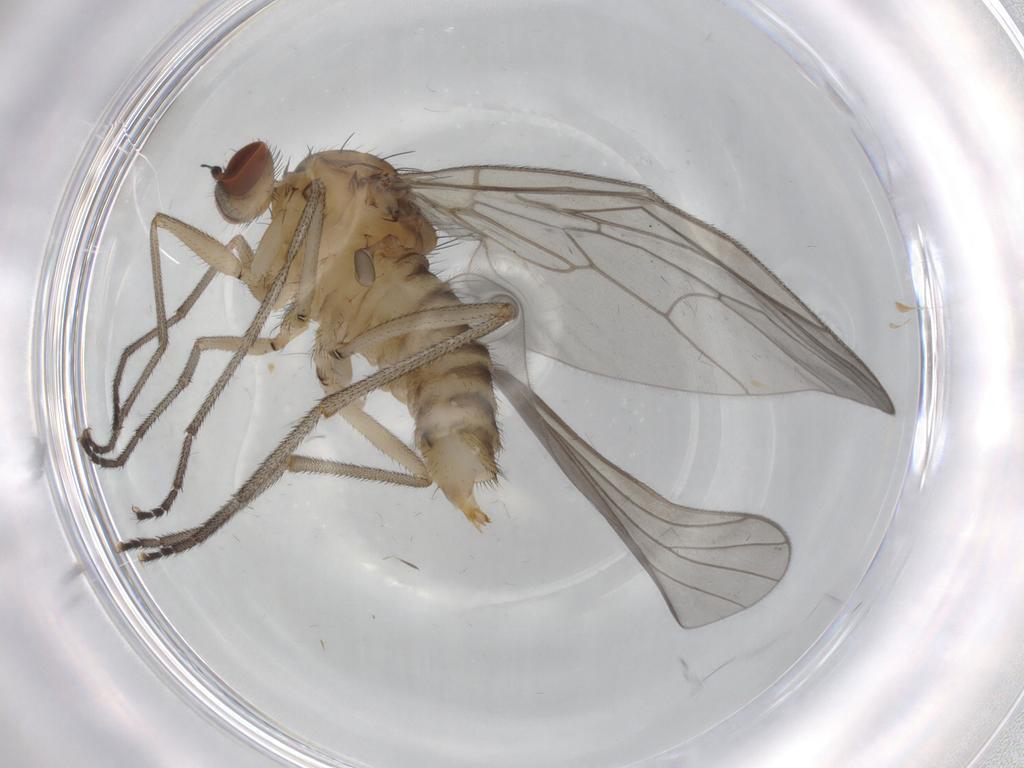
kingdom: Animalia
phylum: Arthropoda
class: Insecta
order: Diptera
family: Brachystomatidae
